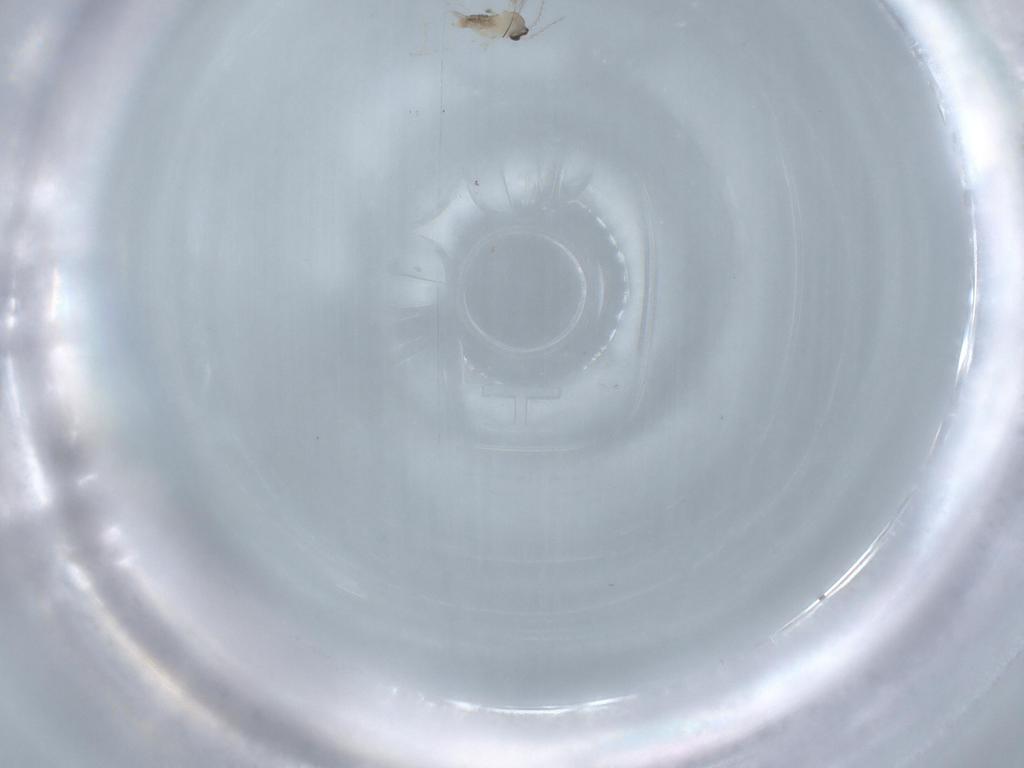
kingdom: Animalia
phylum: Arthropoda
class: Insecta
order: Diptera
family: Cecidomyiidae
